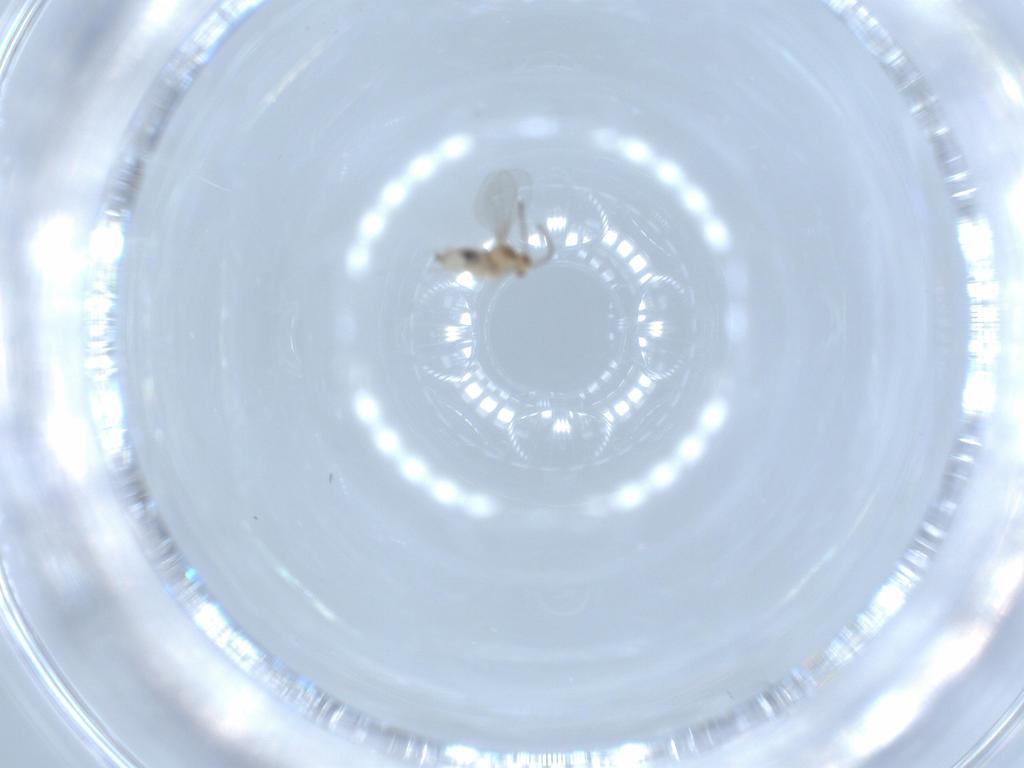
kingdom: Animalia
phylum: Arthropoda
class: Insecta
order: Diptera
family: Cecidomyiidae
